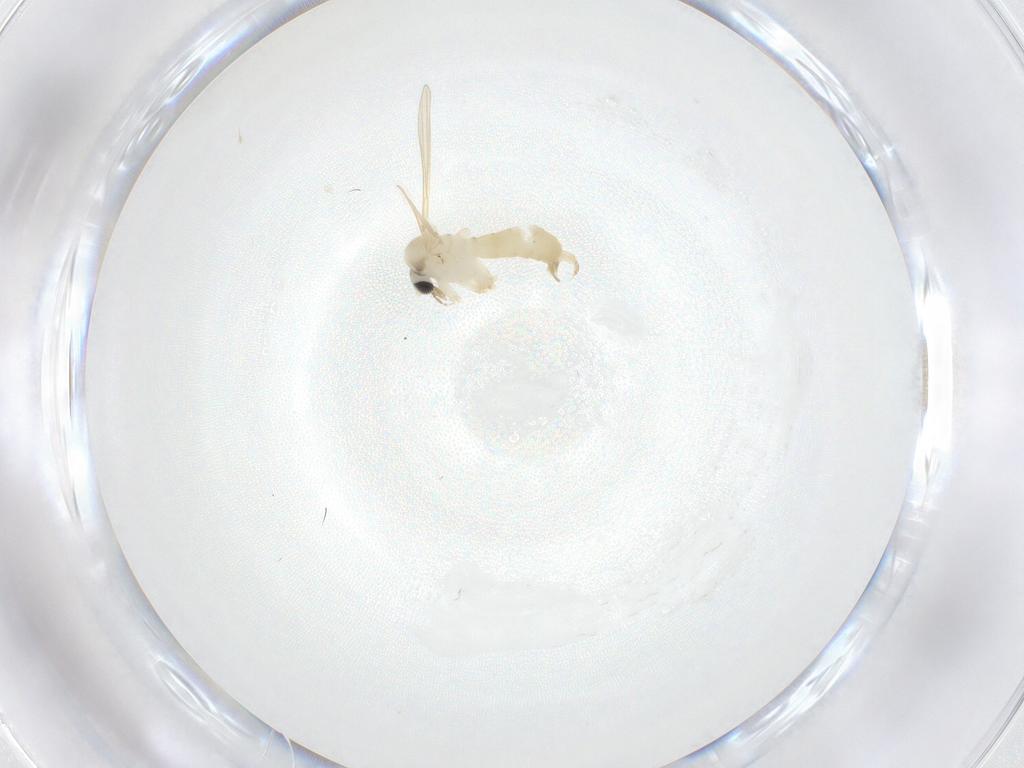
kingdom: Animalia
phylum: Arthropoda
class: Insecta
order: Diptera
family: Psychodidae
